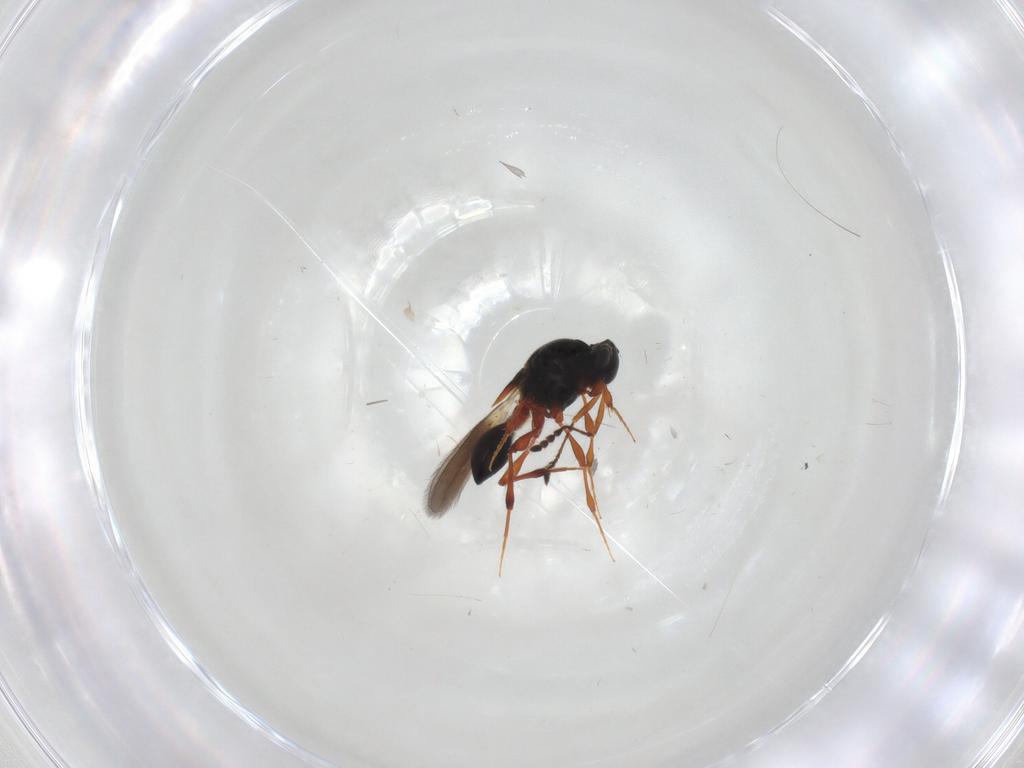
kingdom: Animalia
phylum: Arthropoda
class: Insecta
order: Hymenoptera
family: Platygastridae
